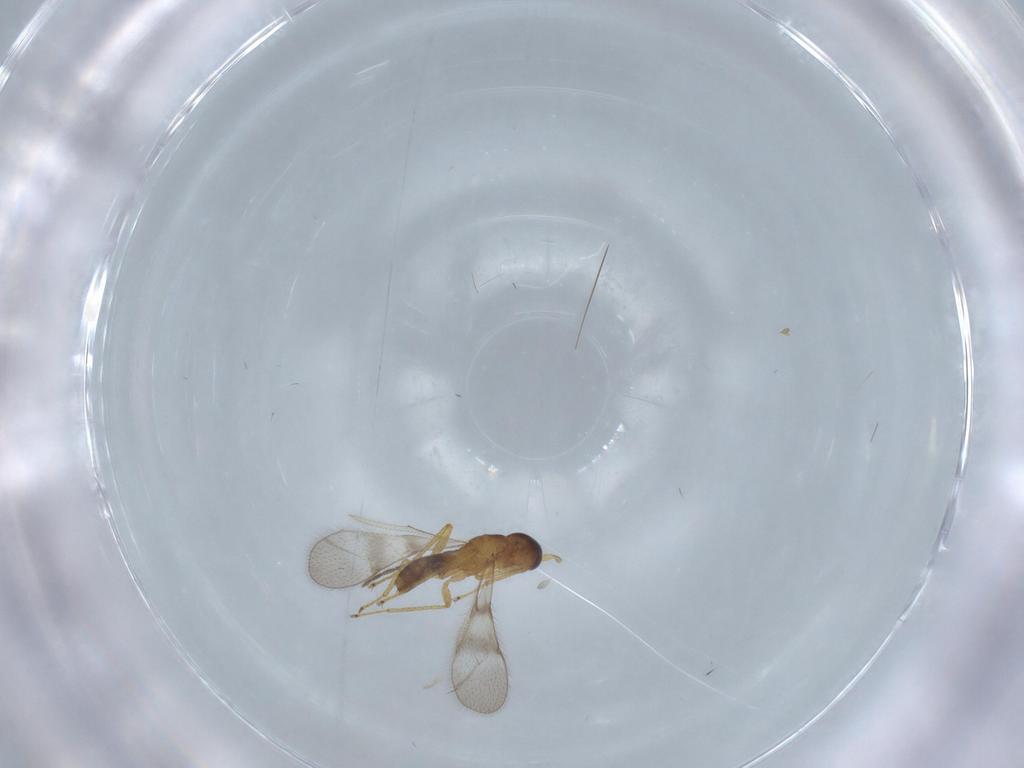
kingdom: Animalia
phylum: Arthropoda
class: Insecta
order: Hymenoptera
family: Mymaridae
